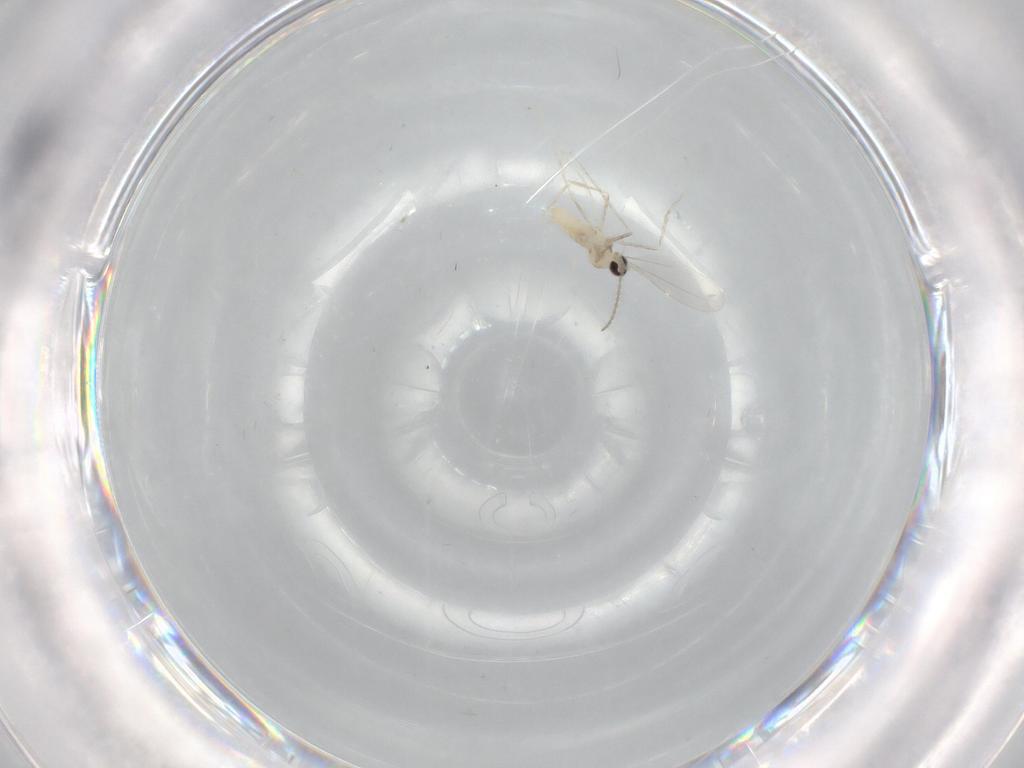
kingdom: Animalia
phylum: Arthropoda
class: Insecta
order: Diptera
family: Cecidomyiidae
